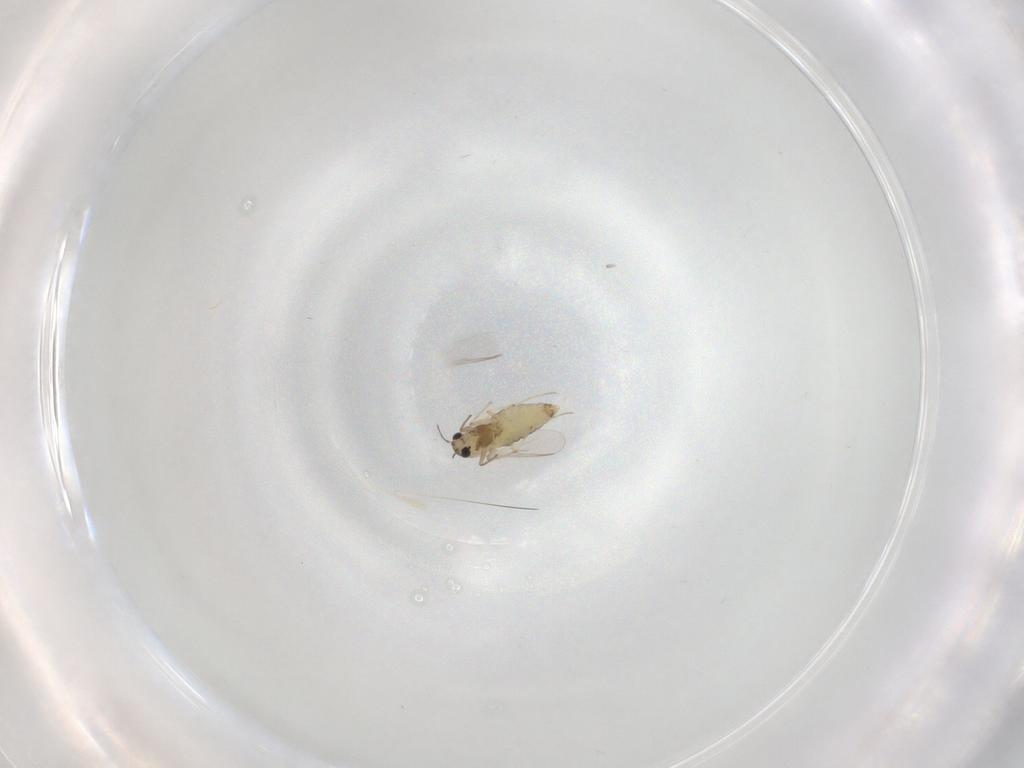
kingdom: Animalia
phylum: Arthropoda
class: Insecta
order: Diptera
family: Chironomidae
